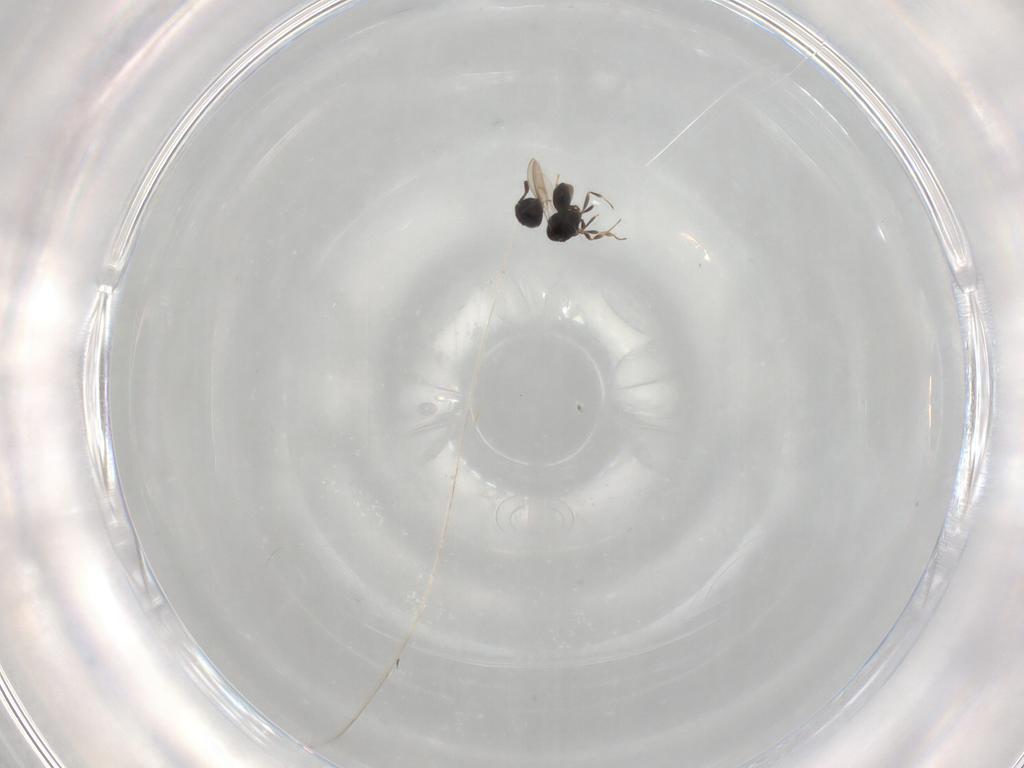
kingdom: Animalia
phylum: Arthropoda
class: Insecta
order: Hymenoptera
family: Scelionidae
